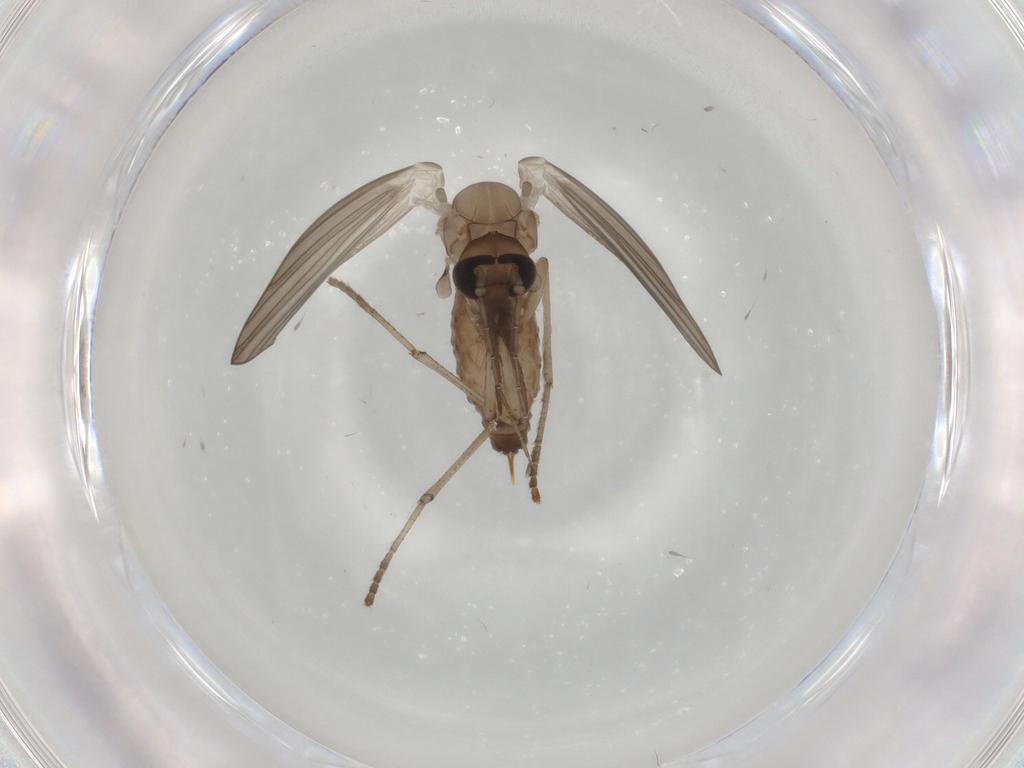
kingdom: Animalia
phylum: Arthropoda
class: Insecta
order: Diptera
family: Psychodidae
